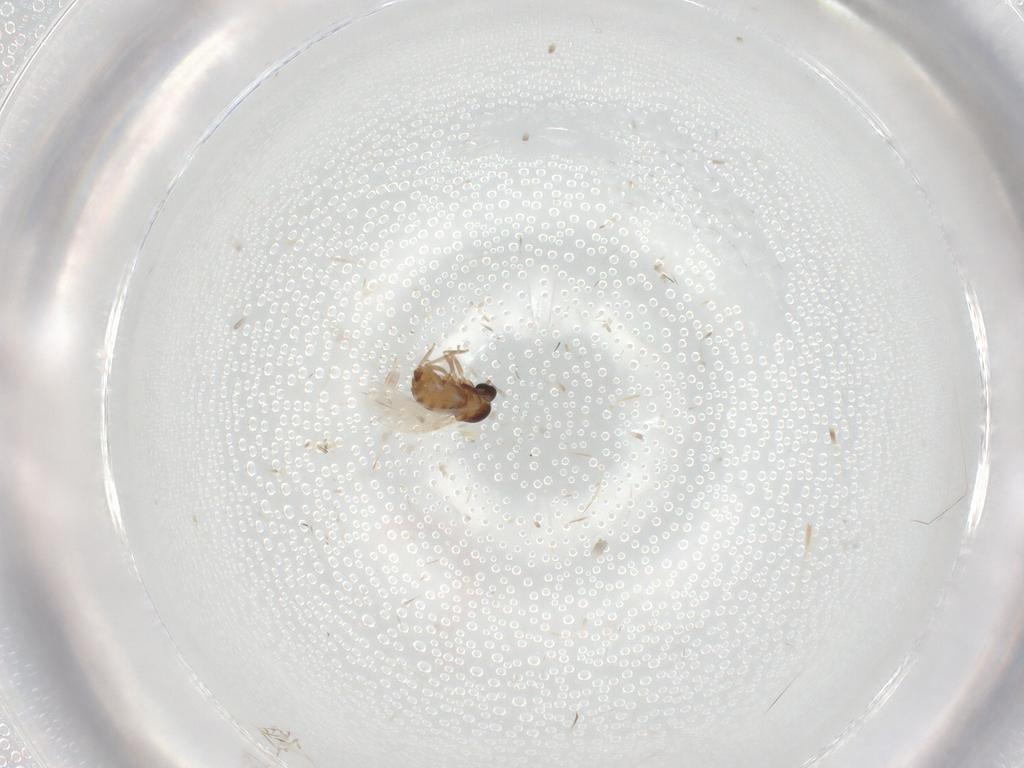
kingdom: Animalia
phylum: Arthropoda
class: Insecta
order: Diptera
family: Cecidomyiidae
